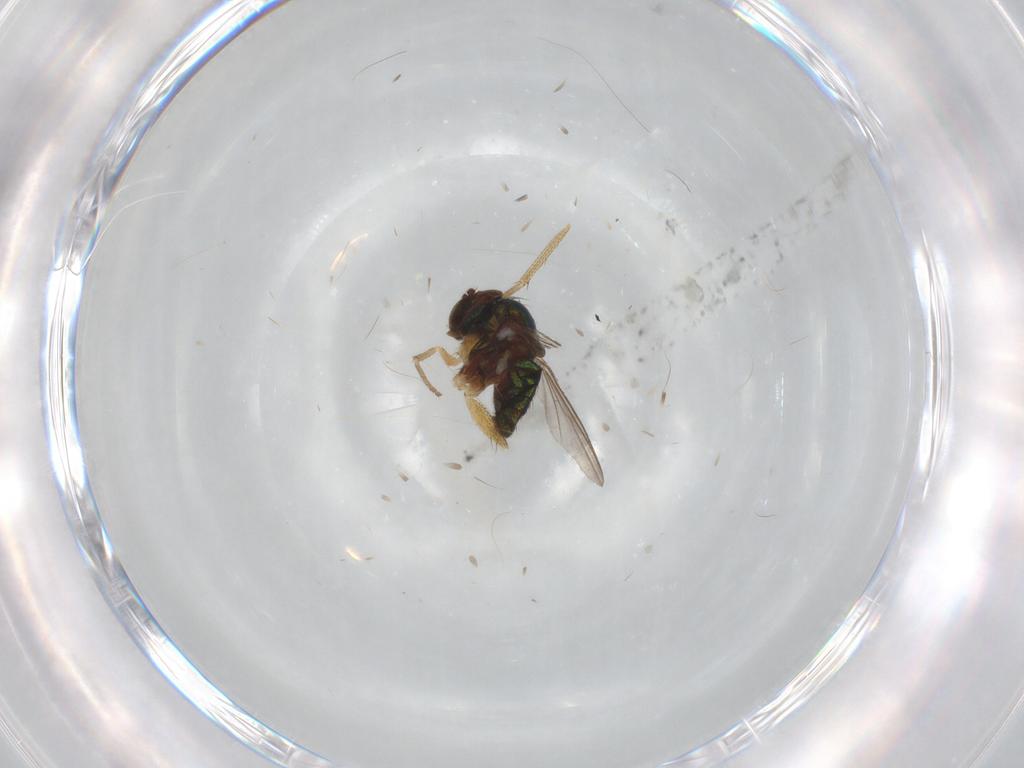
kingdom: Animalia
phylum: Arthropoda
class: Insecta
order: Diptera
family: Cecidomyiidae
